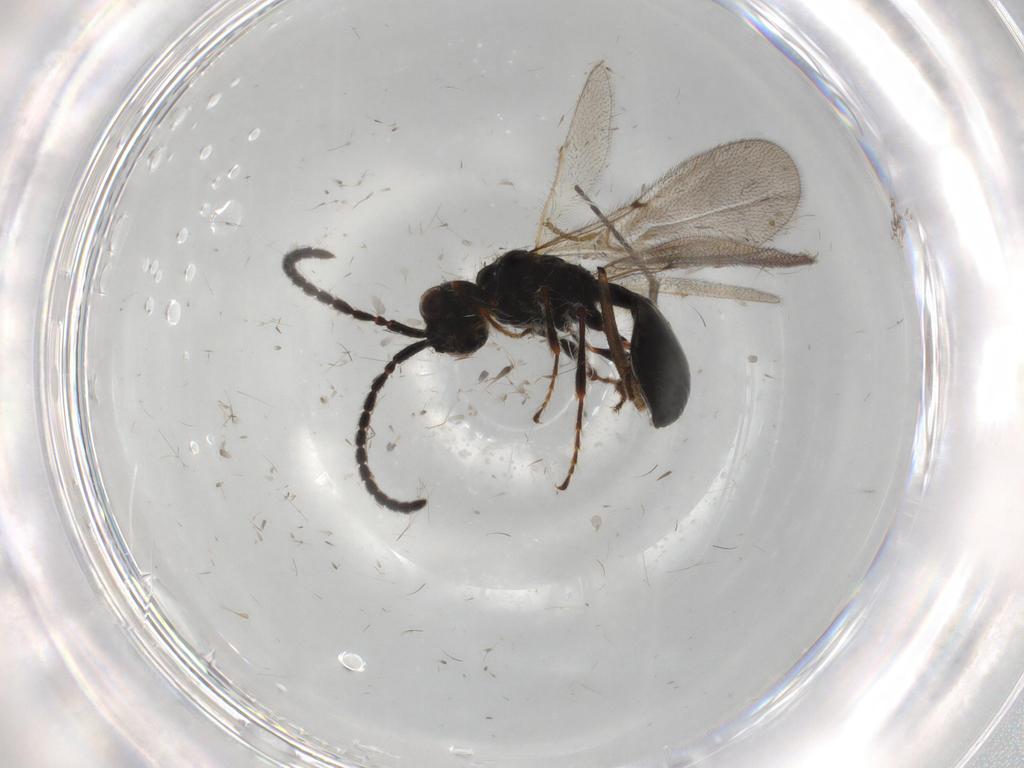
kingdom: Animalia
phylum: Arthropoda
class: Insecta
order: Hymenoptera
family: Diapriidae
